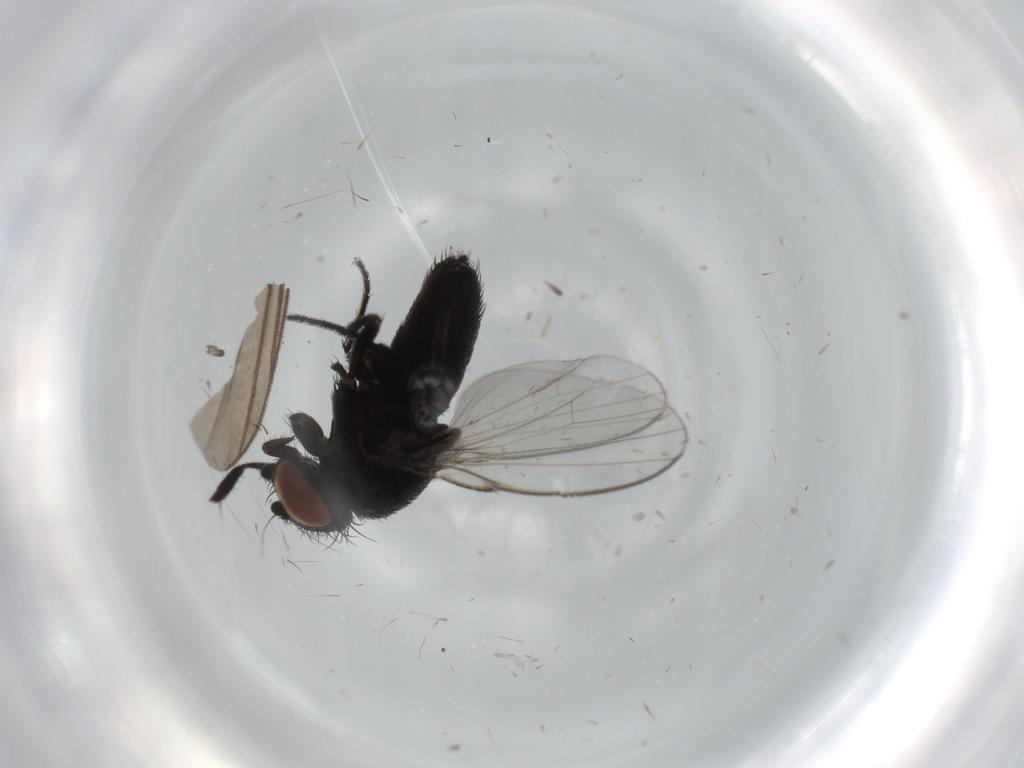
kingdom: Animalia
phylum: Arthropoda
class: Insecta
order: Diptera
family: Milichiidae
